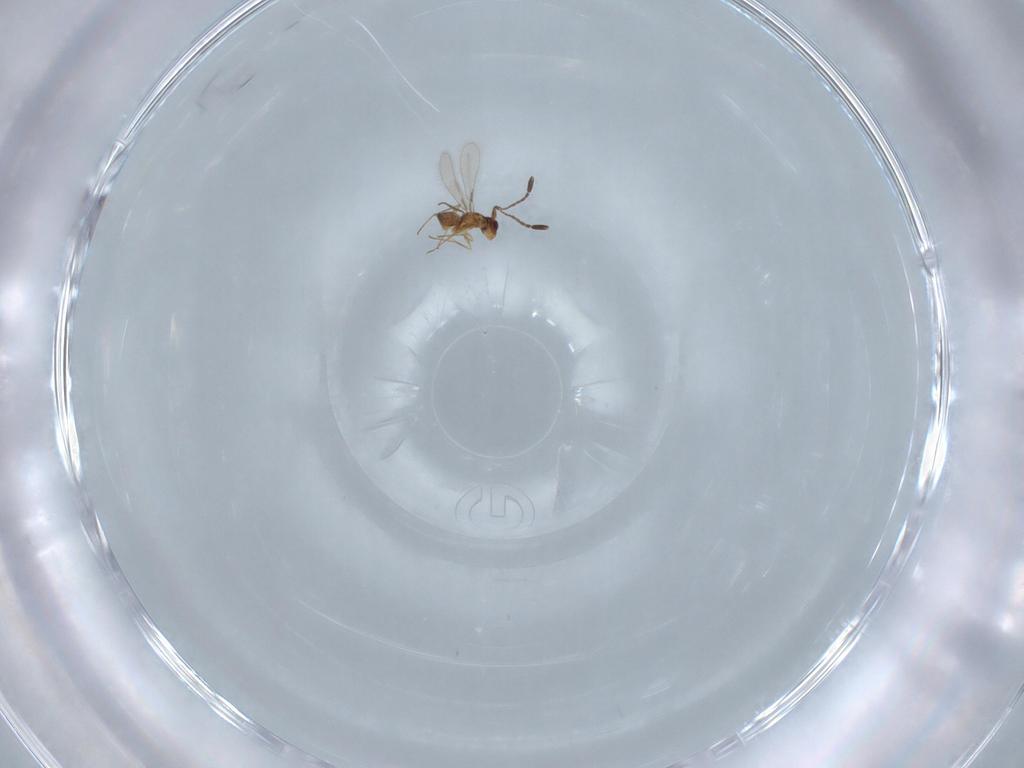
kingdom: Animalia
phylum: Arthropoda
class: Insecta
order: Hymenoptera
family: Mymaridae
